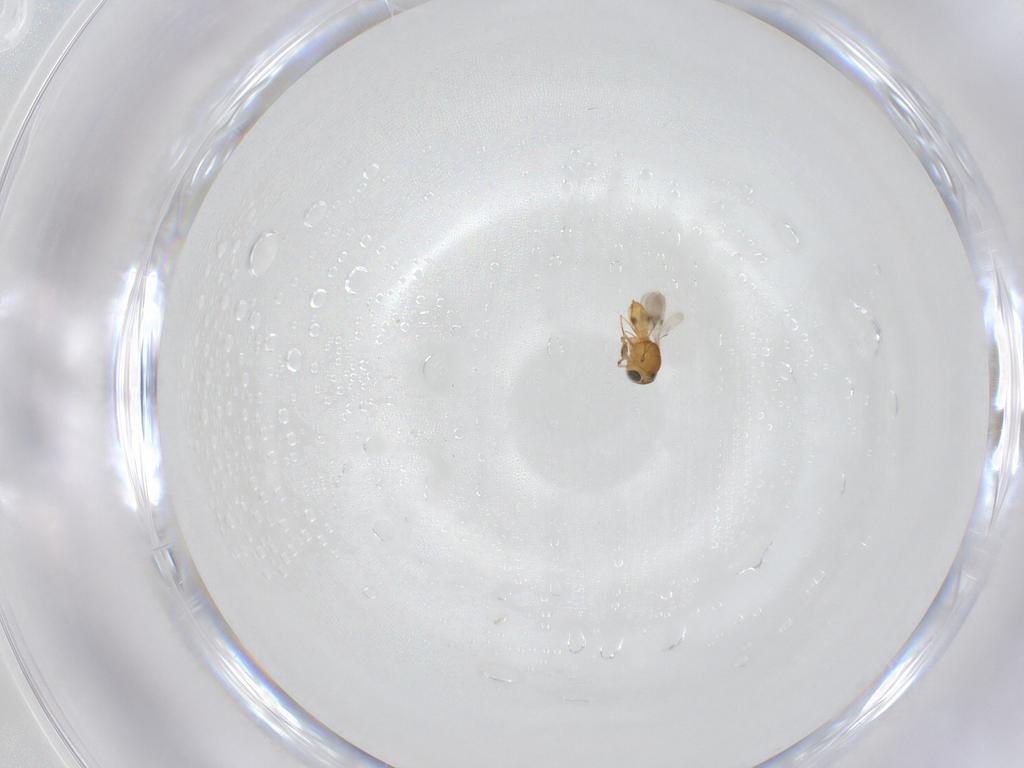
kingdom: Animalia
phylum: Arthropoda
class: Insecta
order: Hymenoptera
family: Scelionidae
